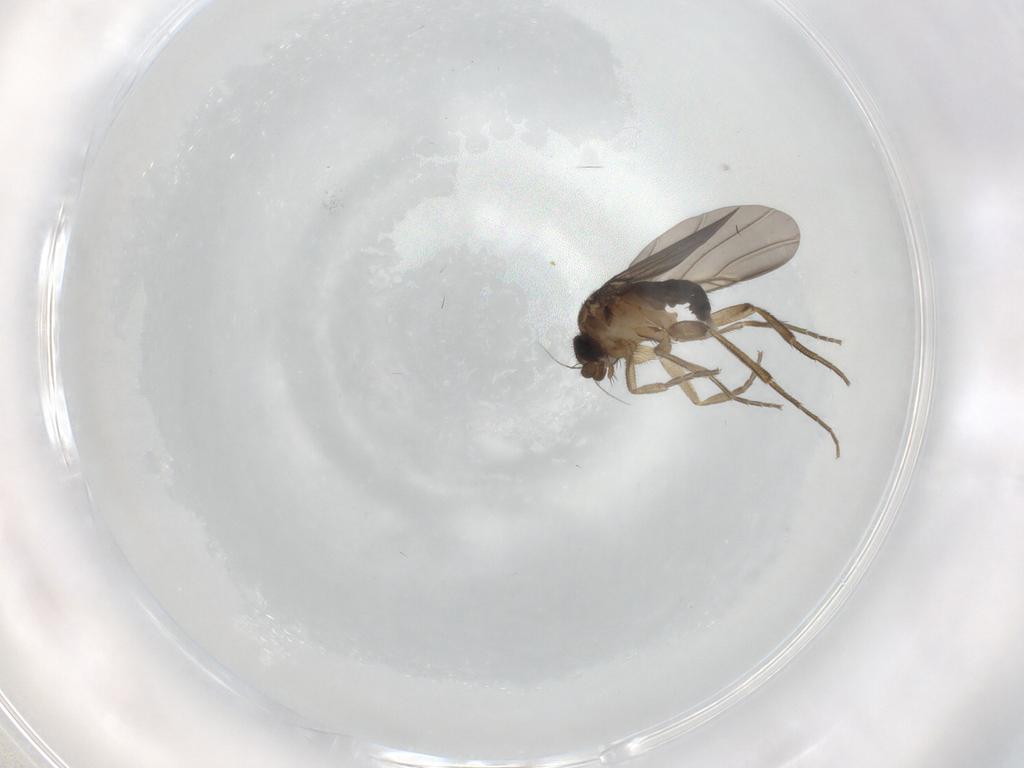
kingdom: Animalia
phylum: Arthropoda
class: Insecta
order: Diptera
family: Phoridae
